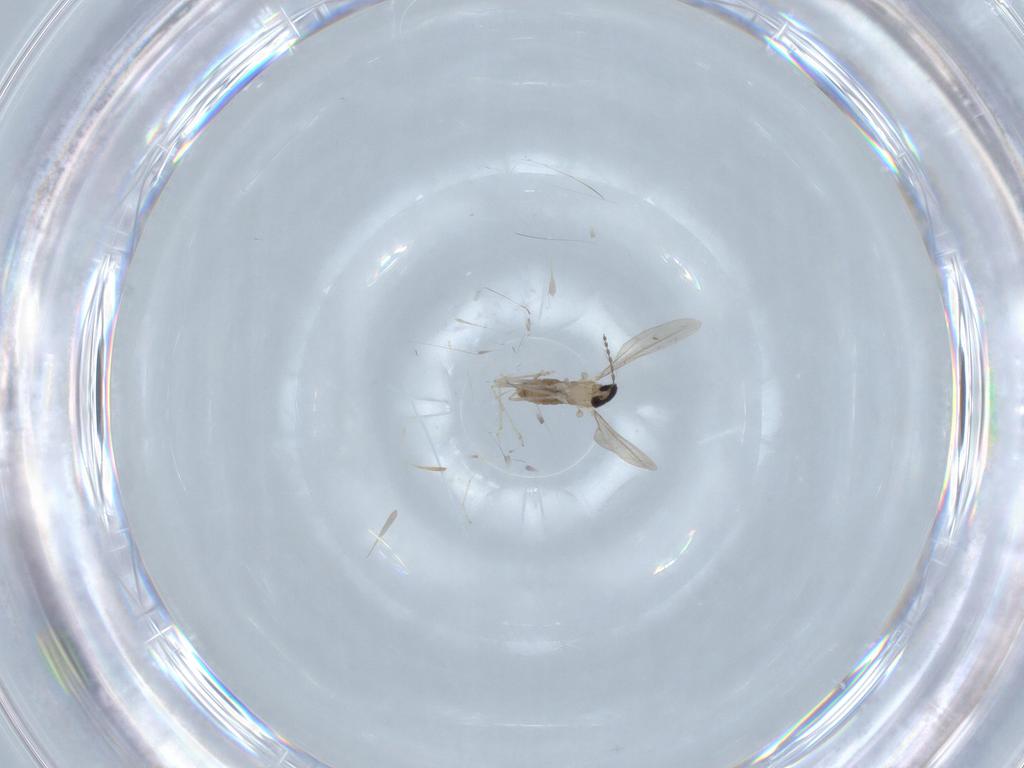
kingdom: Animalia
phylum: Arthropoda
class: Insecta
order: Diptera
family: Cecidomyiidae
